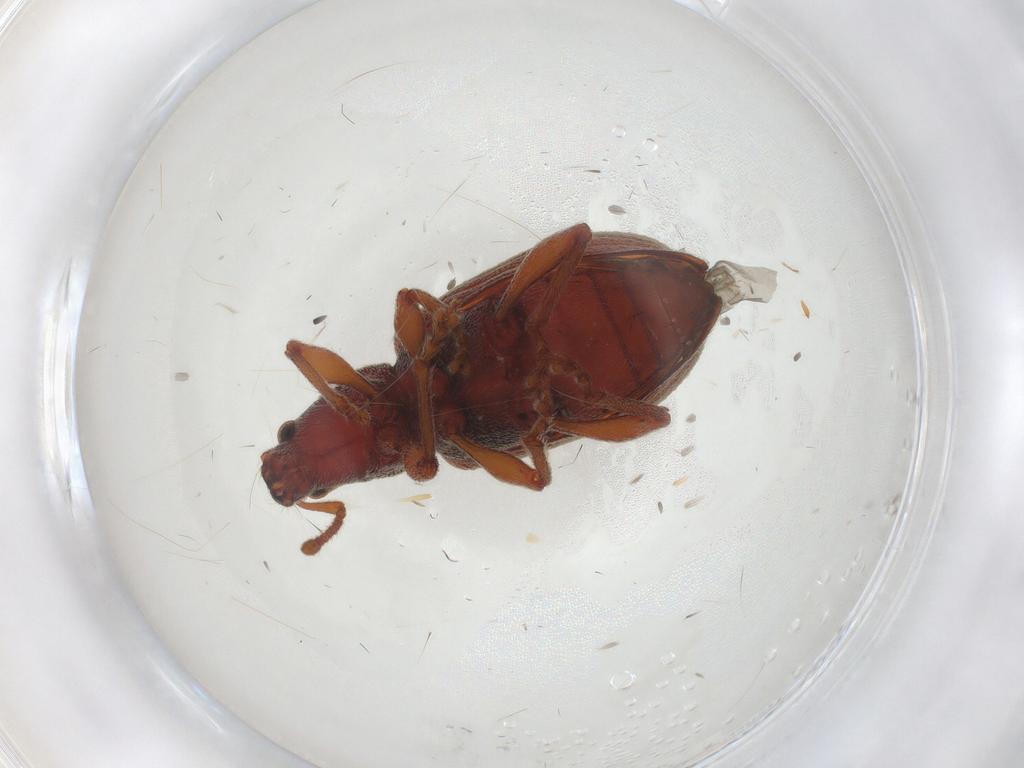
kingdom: Animalia
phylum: Arthropoda
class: Insecta
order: Coleoptera
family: Curculionidae
